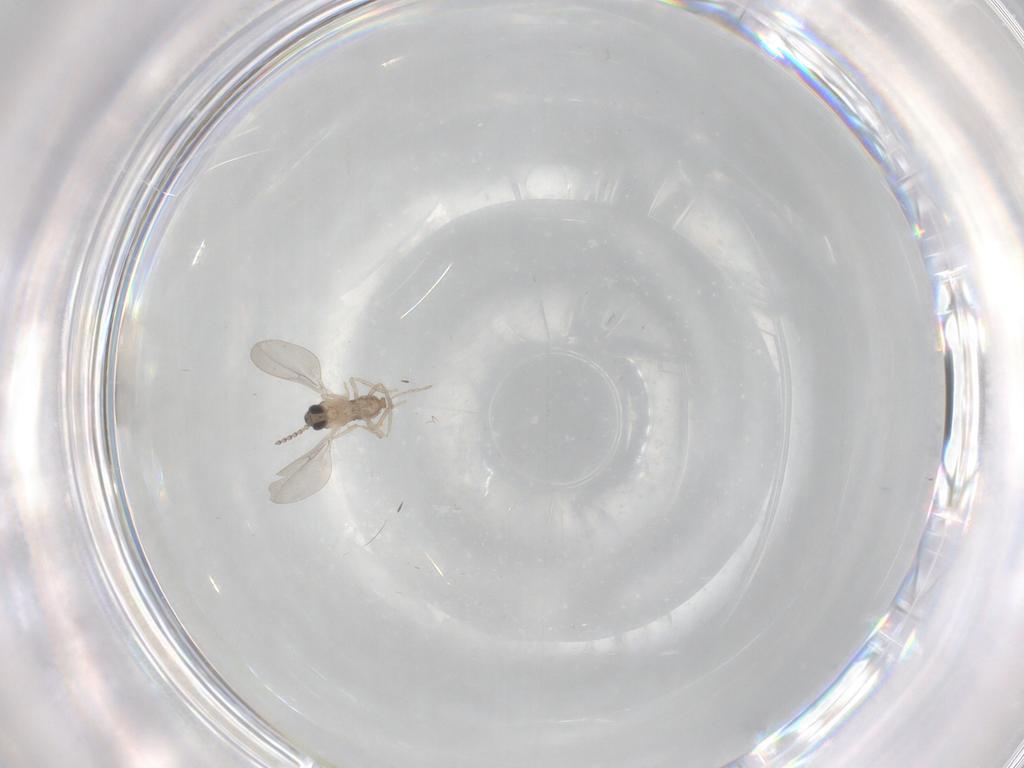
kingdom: Animalia
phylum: Arthropoda
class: Insecta
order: Diptera
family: Cecidomyiidae
